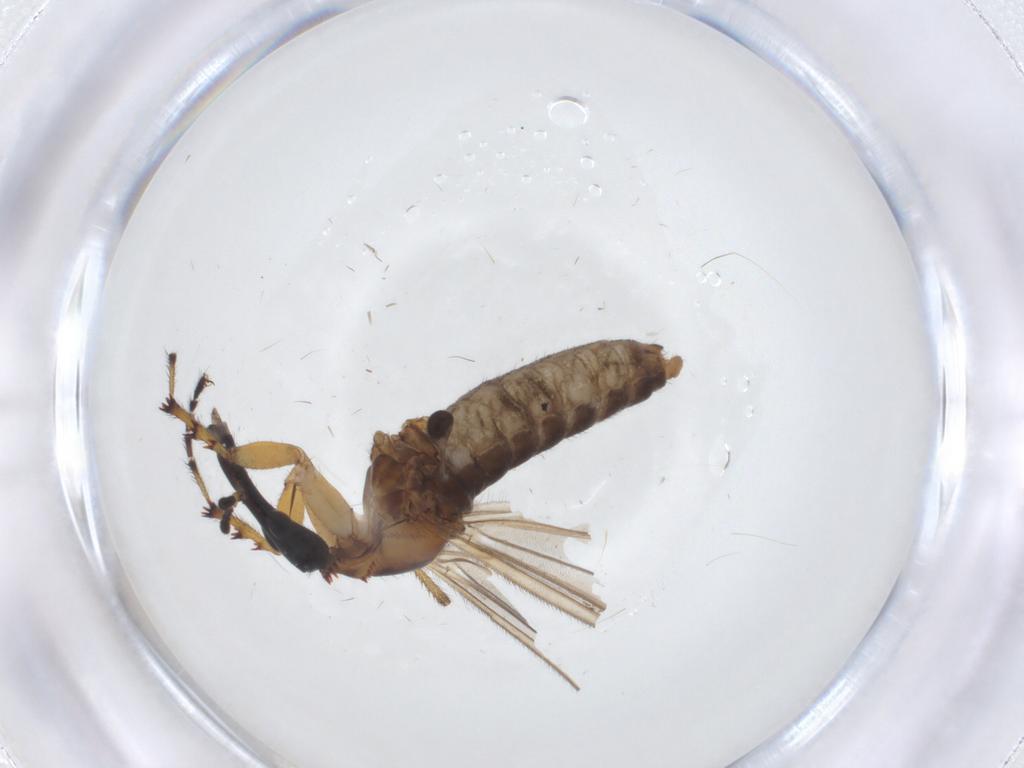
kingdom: Animalia
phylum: Arthropoda
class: Insecta
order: Diptera
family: Bibionidae
